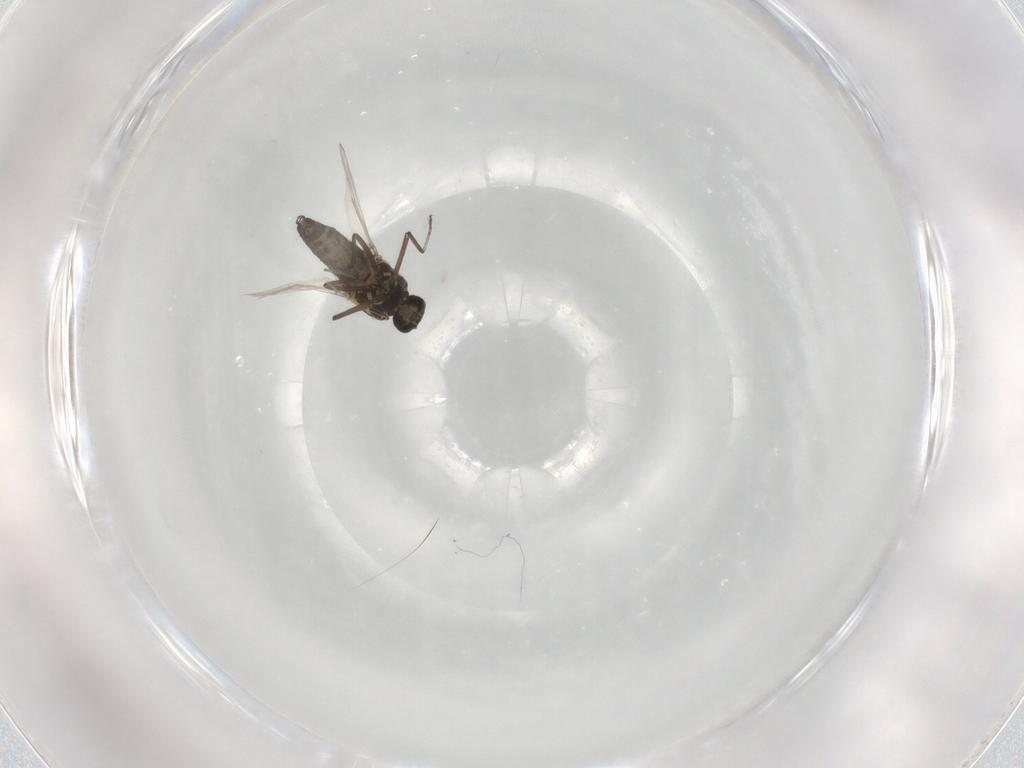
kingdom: Animalia
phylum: Arthropoda
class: Insecta
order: Diptera
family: Ceratopogonidae
